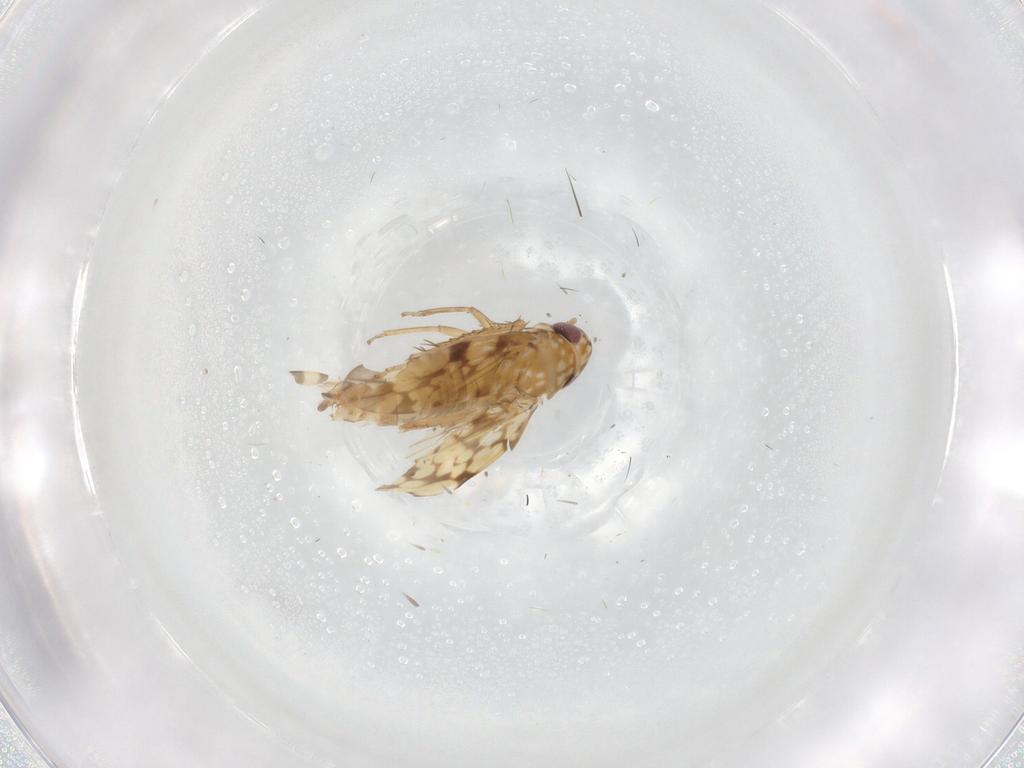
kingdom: Animalia
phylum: Arthropoda
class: Insecta
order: Hemiptera
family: Cicadellidae
